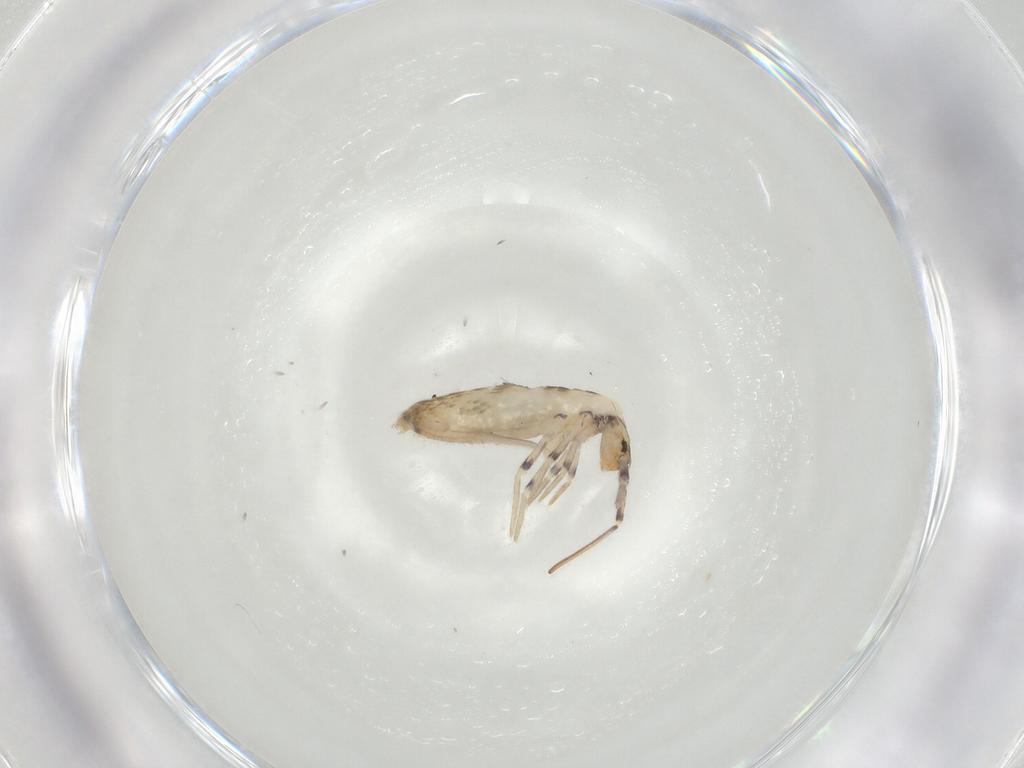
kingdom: Animalia
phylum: Arthropoda
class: Collembola
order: Entomobryomorpha
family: Entomobryidae
